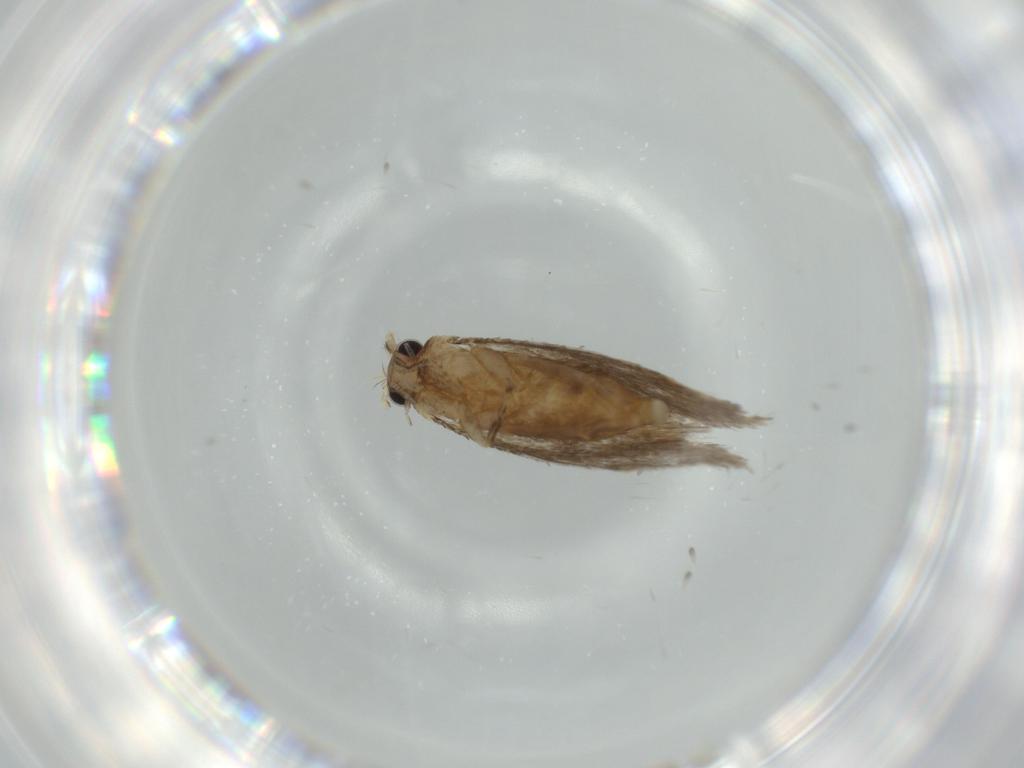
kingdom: Animalia
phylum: Arthropoda
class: Insecta
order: Lepidoptera
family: Tineidae
